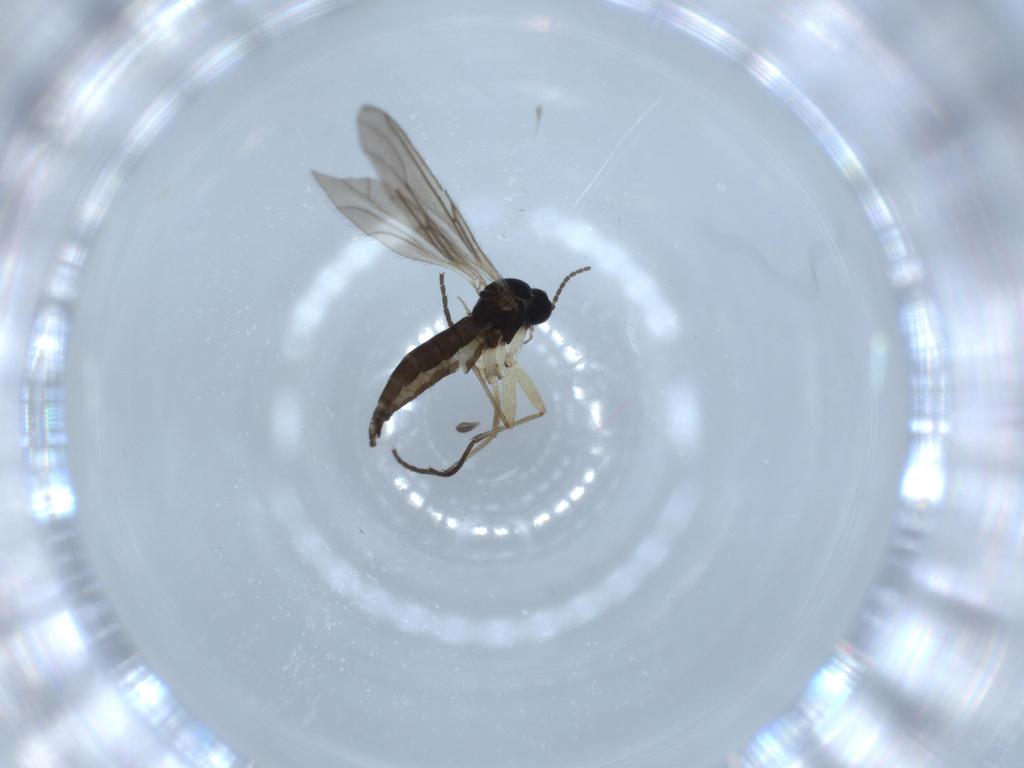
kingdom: Animalia
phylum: Arthropoda
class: Insecta
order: Diptera
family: Sciaridae
